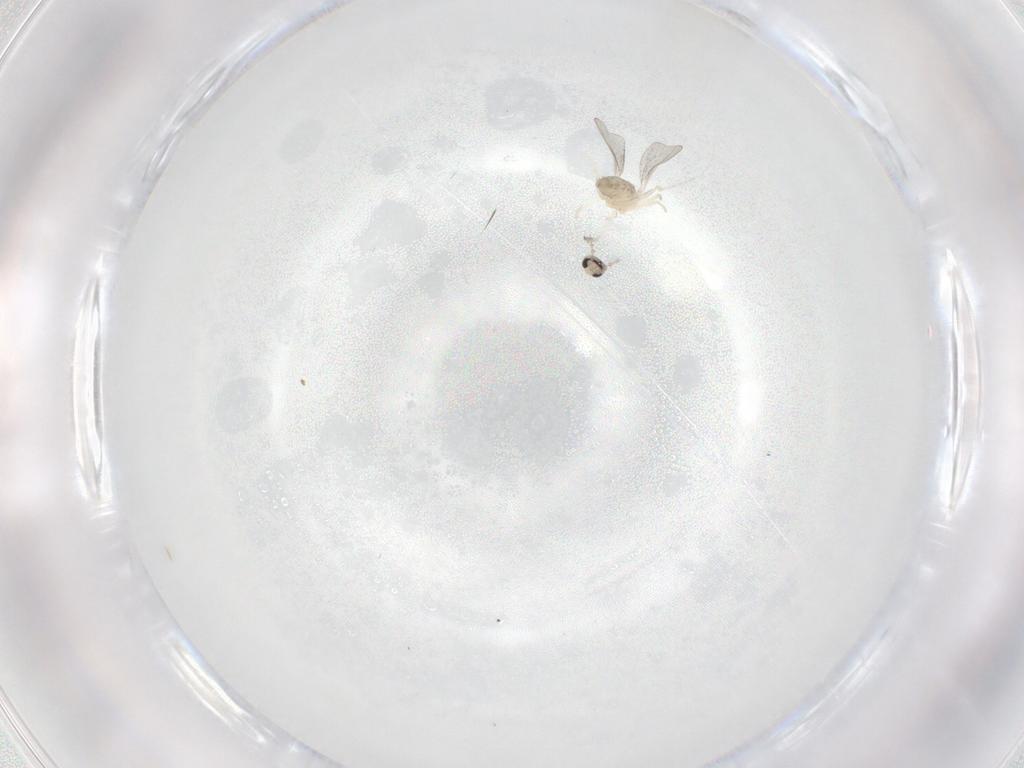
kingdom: Animalia
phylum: Arthropoda
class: Insecta
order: Diptera
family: Cecidomyiidae
